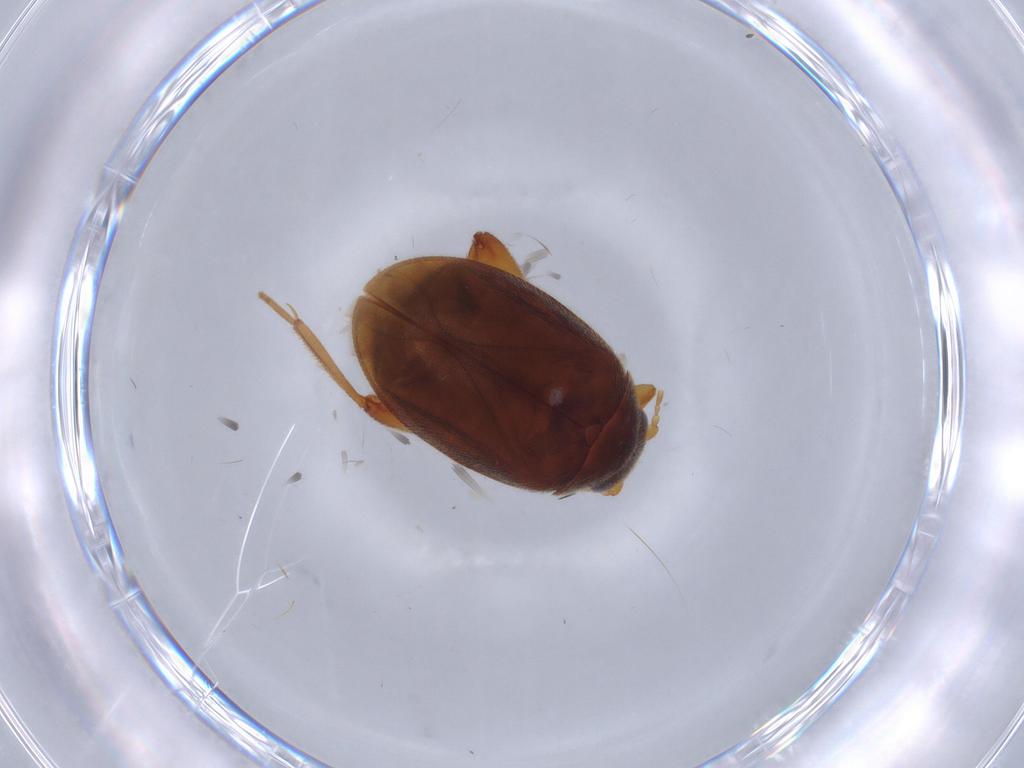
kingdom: Animalia
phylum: Arthropoda
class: Insecta
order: Coleoptera
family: Scirtidae
